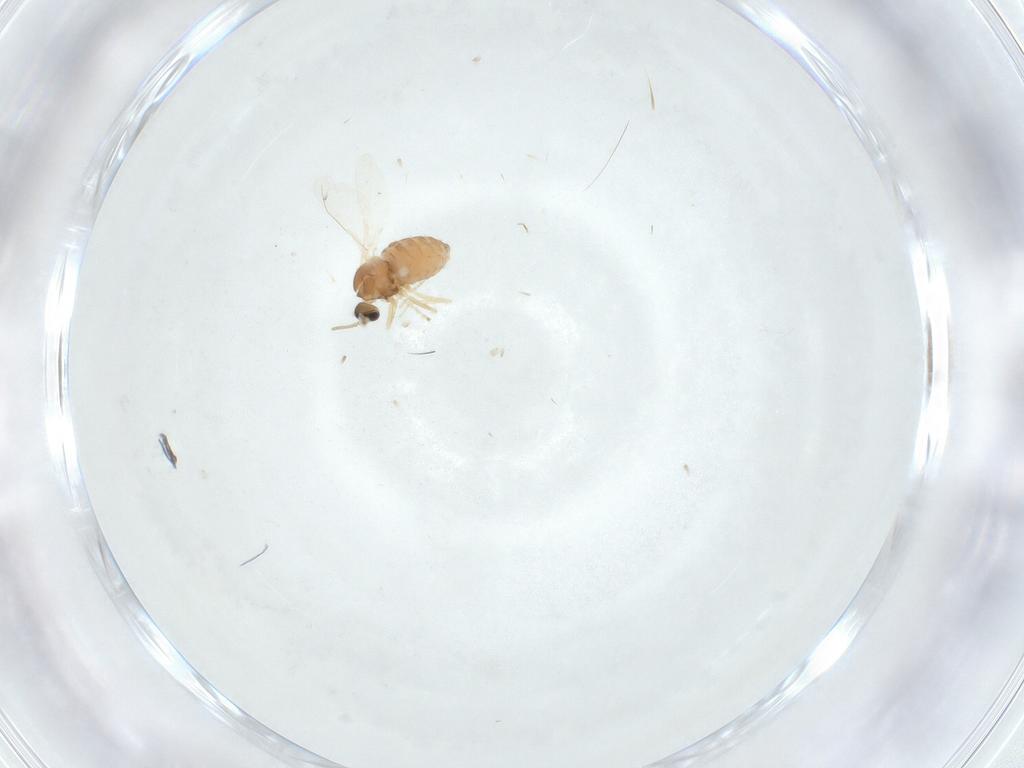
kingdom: Animalia
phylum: Arthropoda
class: Insecta
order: Diptera
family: Cecidomyiidae
